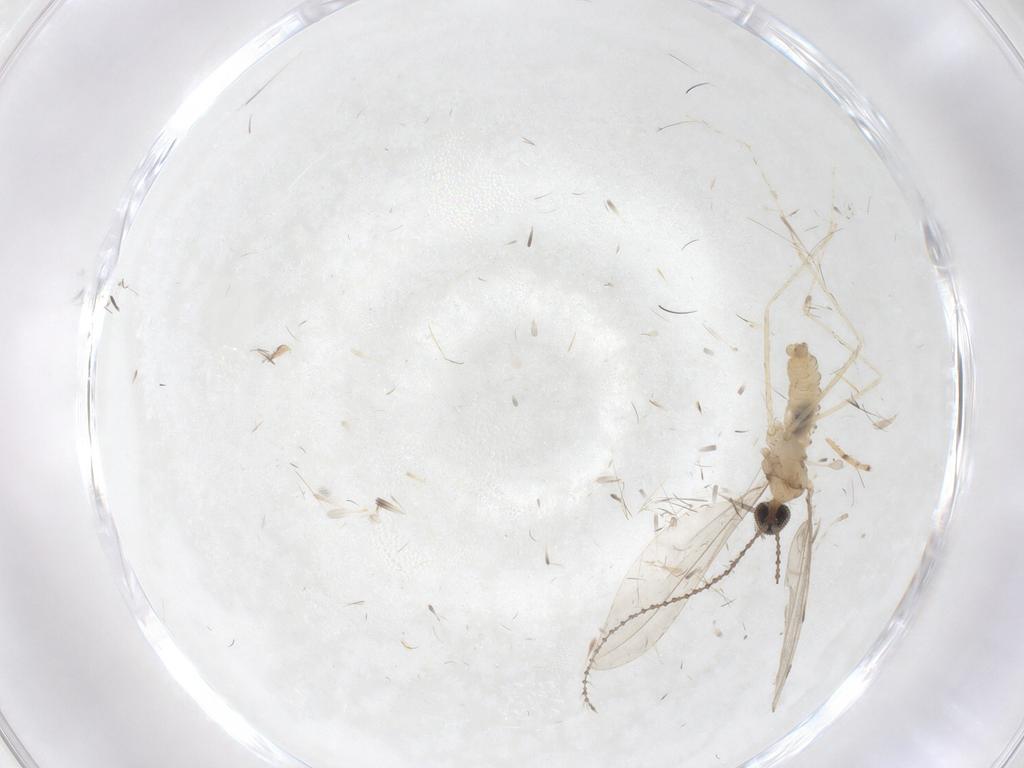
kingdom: Animalia
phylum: Arthropoda
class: Insecta
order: Diptera
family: Cecidomyiidae
